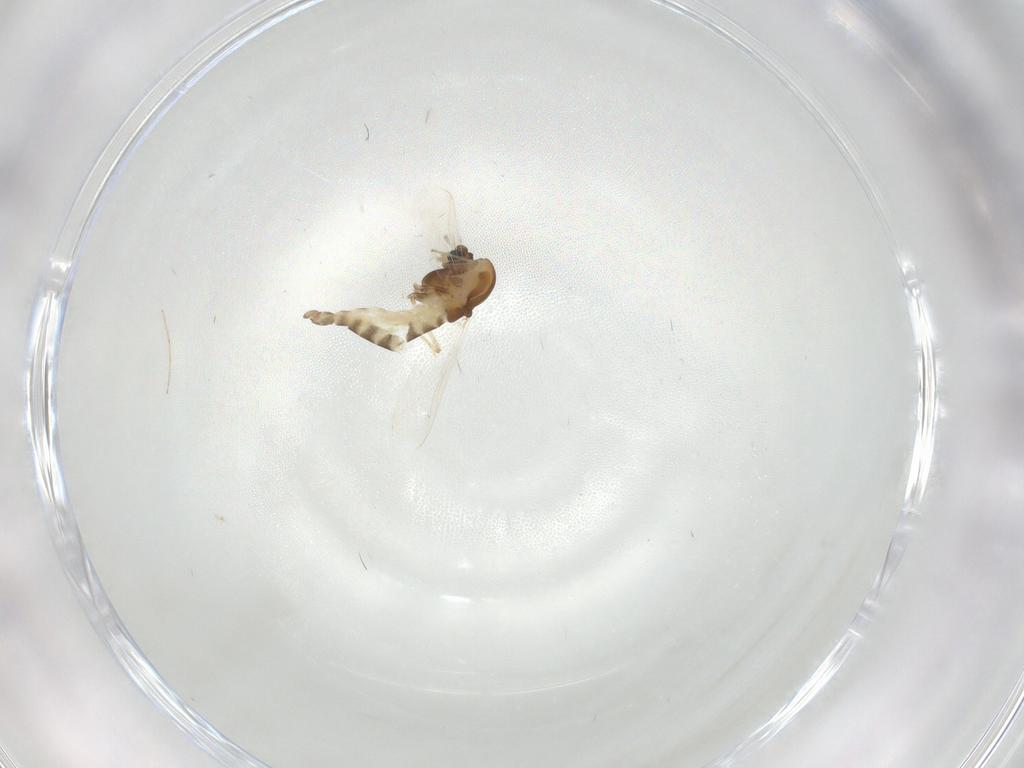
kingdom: Animalia
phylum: Arthropoda
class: Insecta
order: Diptera
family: Chironomidae
